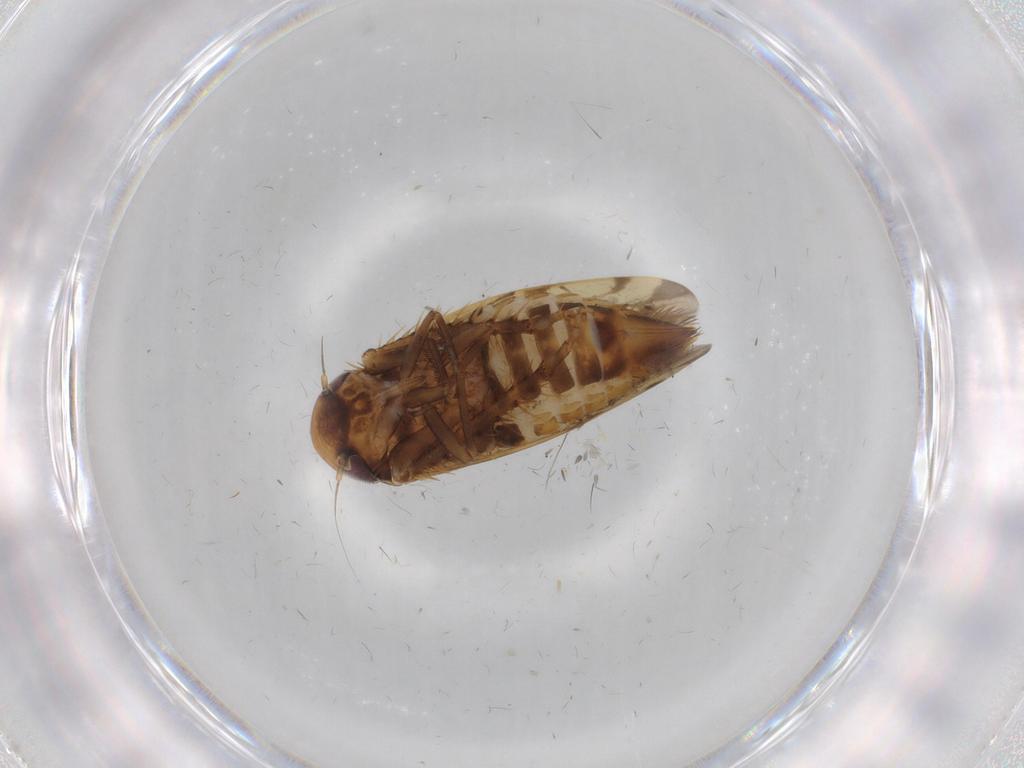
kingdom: Animalia
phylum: Arthropoda
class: Insecta
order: Hemiptera
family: Cicadellidae
